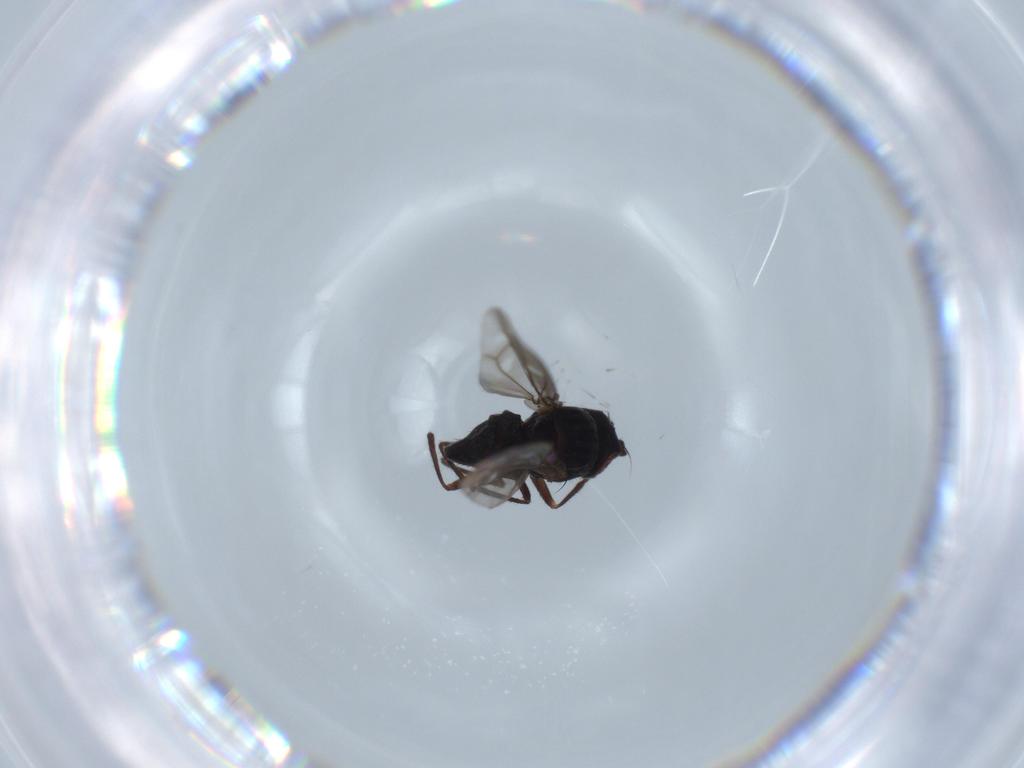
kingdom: Animalia
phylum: Arthropoda
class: Insecta
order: Diptera
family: Ephydridae
